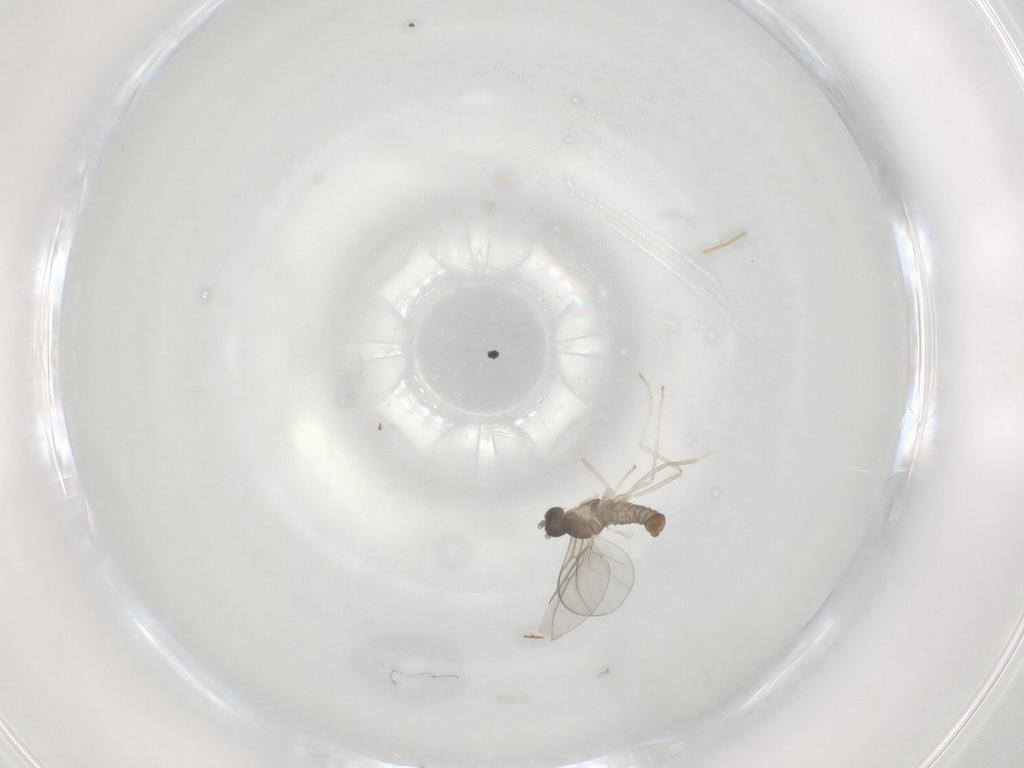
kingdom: Animalia
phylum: Arthropoda
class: Insecta
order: Diptera
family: Cecidomyiidae
